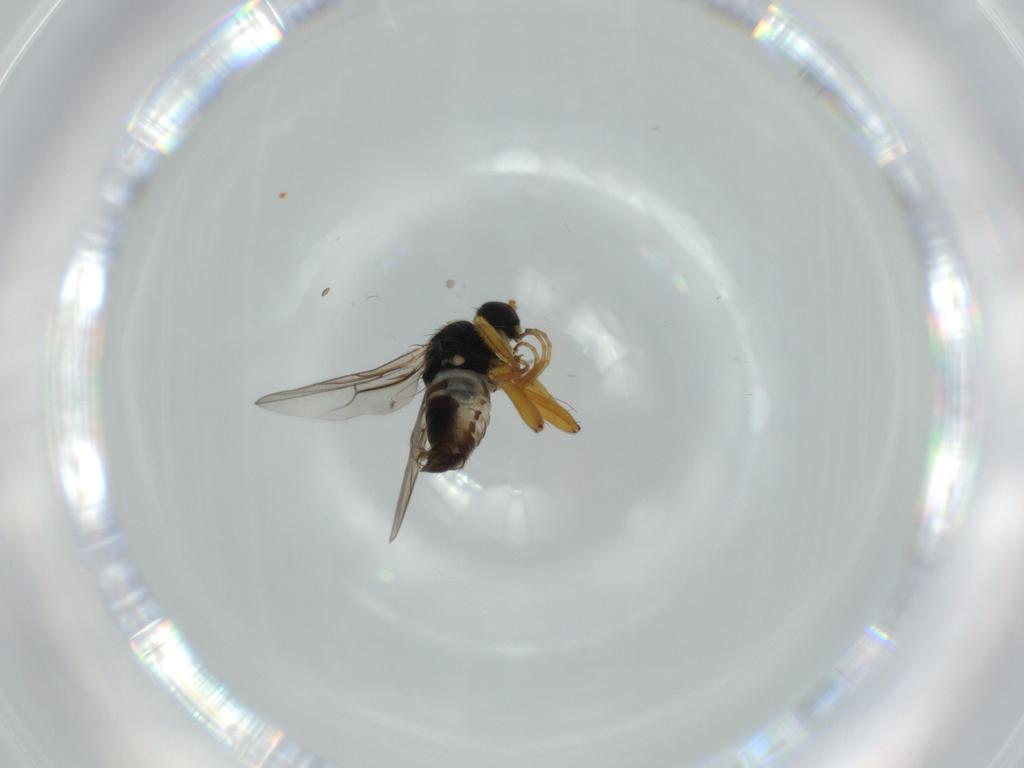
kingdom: Animalia
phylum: Arthropoda
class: Insecta
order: Diptera
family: Hybotidae
